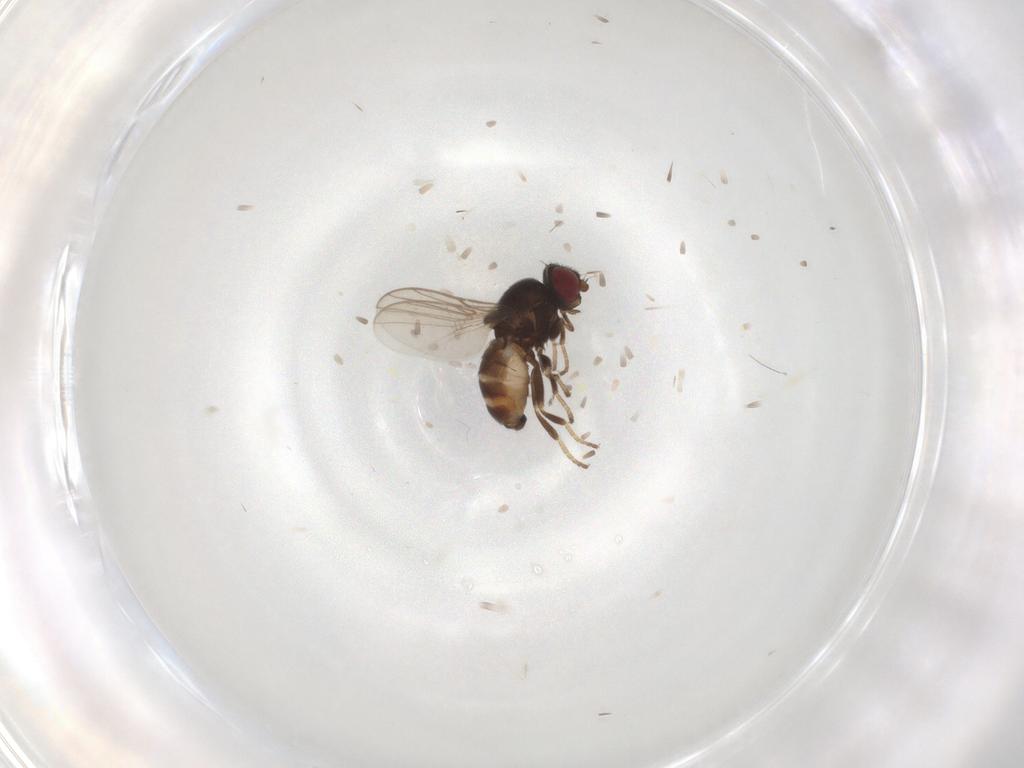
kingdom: Animalia
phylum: Arthropoda
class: Insecta
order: Diptera
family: Chloropidae
